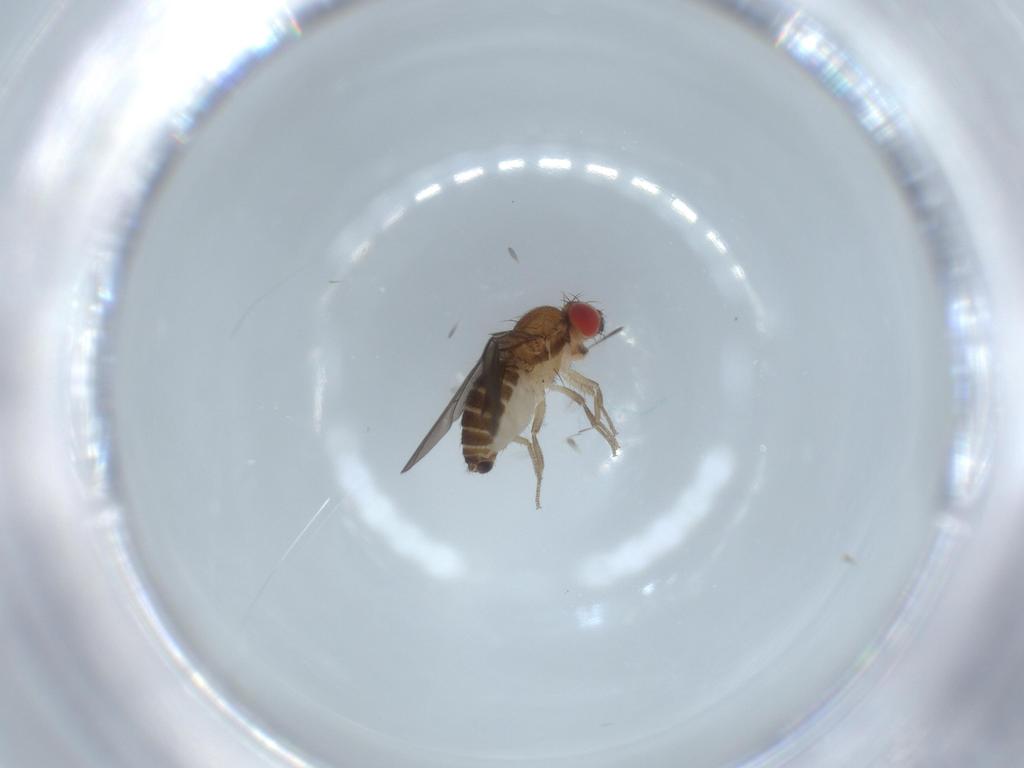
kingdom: Animalia
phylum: Arthropoda
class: Insecta
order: Diptera
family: Drosophilidae
